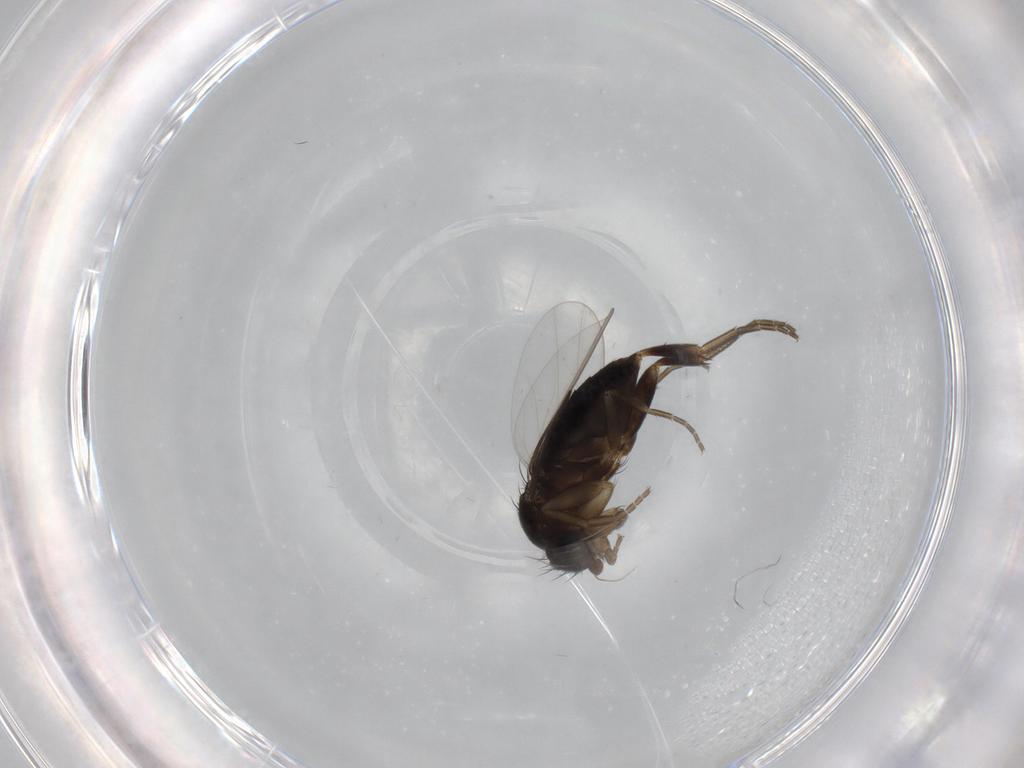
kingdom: Animalia
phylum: Arthropoda
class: Insecta
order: Diptera
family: Phoridae
